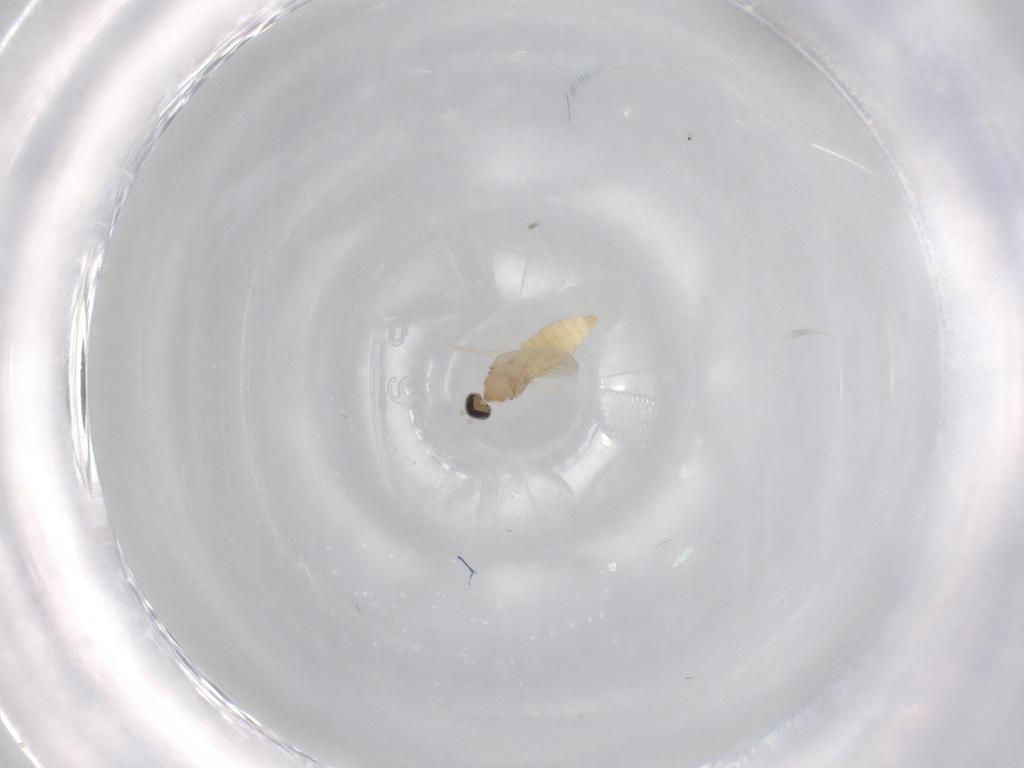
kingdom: Animalia
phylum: Arthropoda
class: Insecta
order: Diptera
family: Cecidomyiidae
